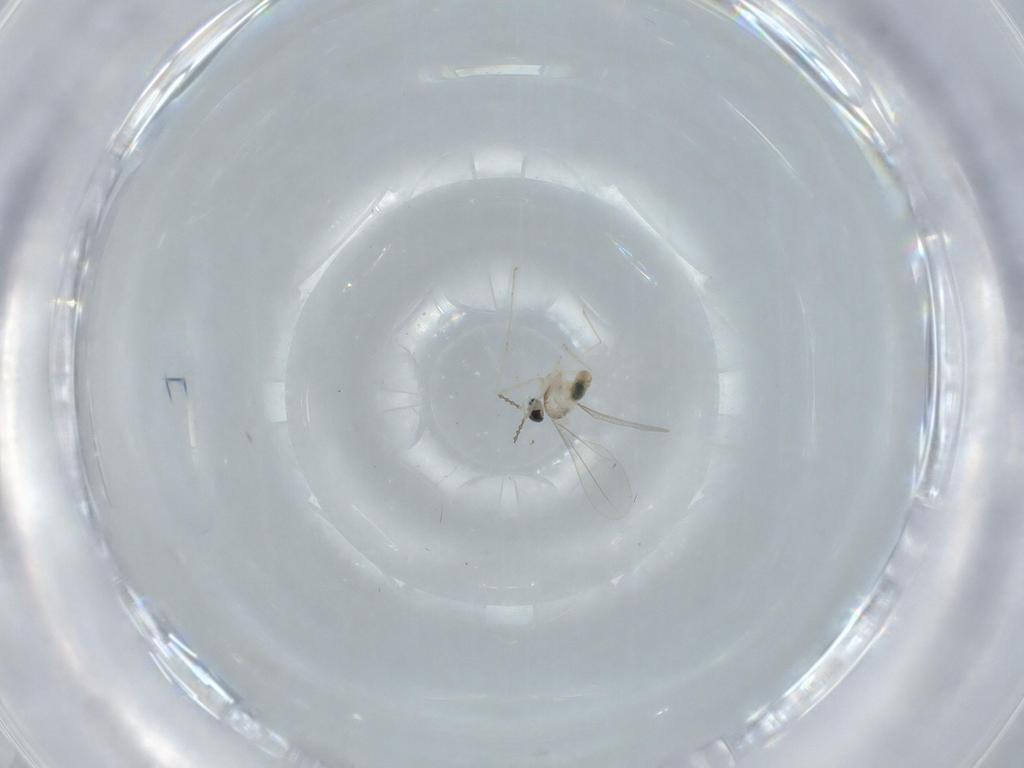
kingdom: Animalia
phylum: Arthropoda
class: Insecta
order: Diptera
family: Cecidomyiidae
